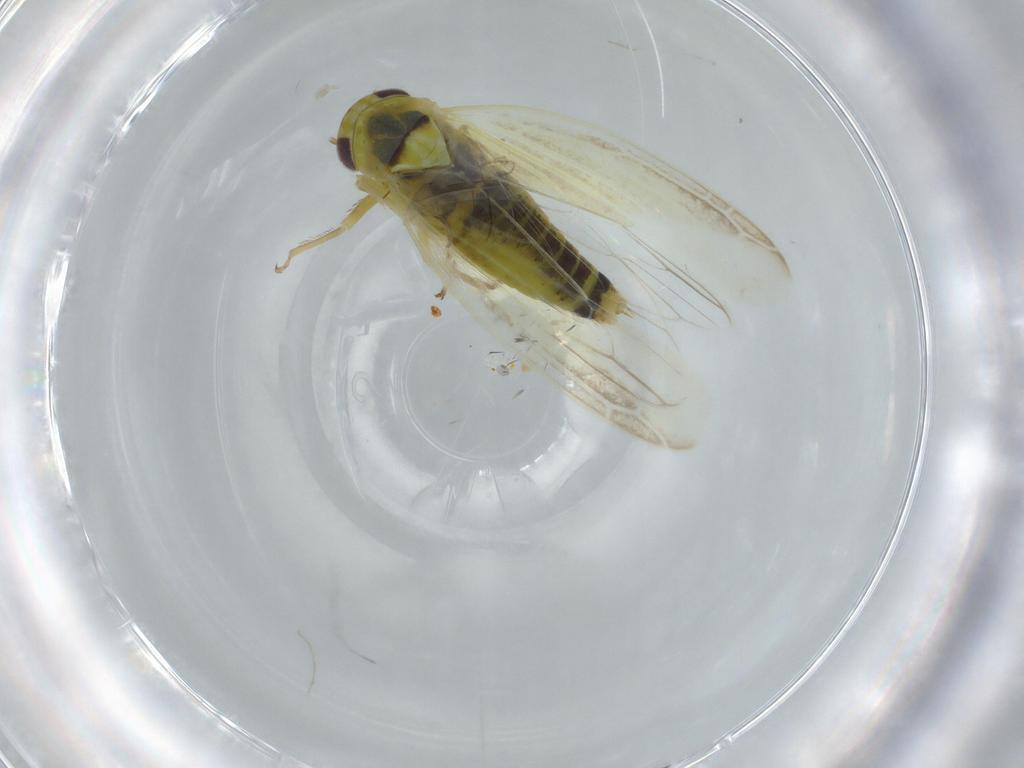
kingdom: Animalia
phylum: Arthropoda
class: Insecta
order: Hemiptera
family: Cicadellidae
